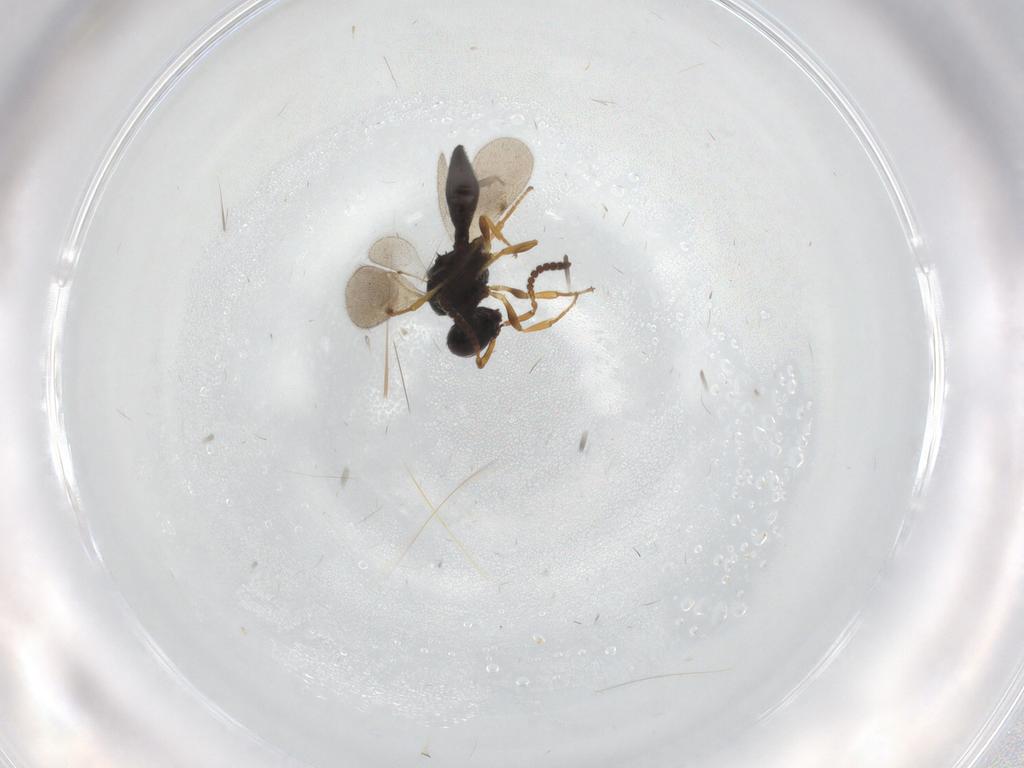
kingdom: Animalia
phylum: Arthropoda
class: Insecta
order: Hymenoptera
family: Scelionidae
